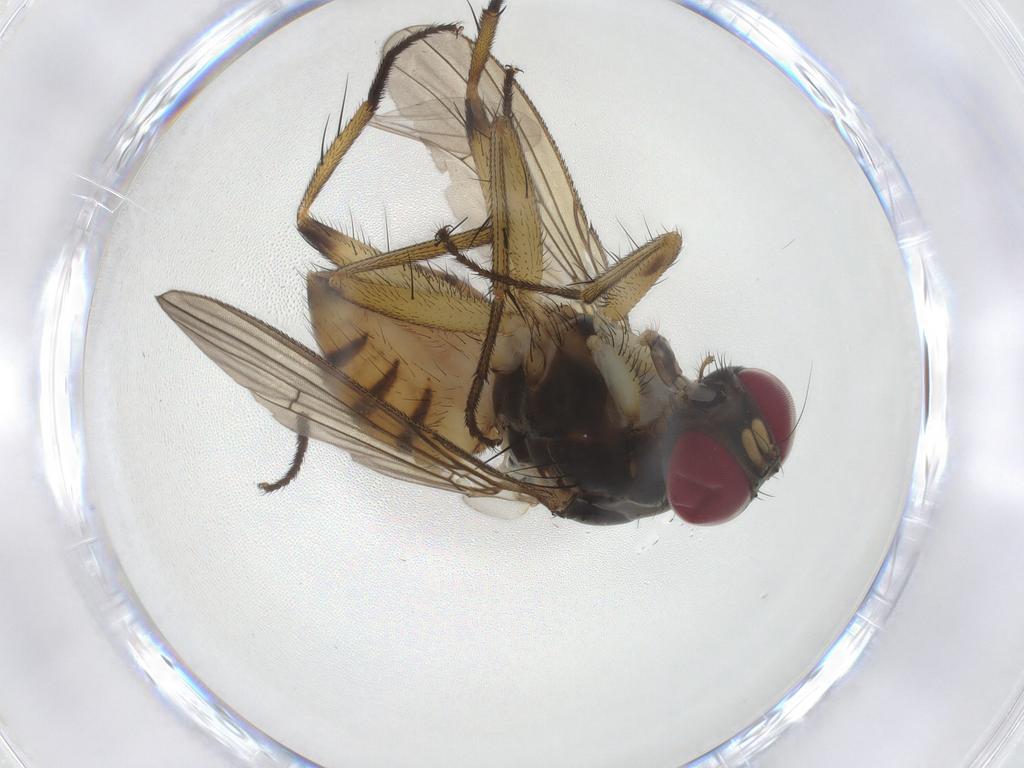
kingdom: Animalia
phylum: Arthropoda
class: Insecta
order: Diptera
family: Muscidae
